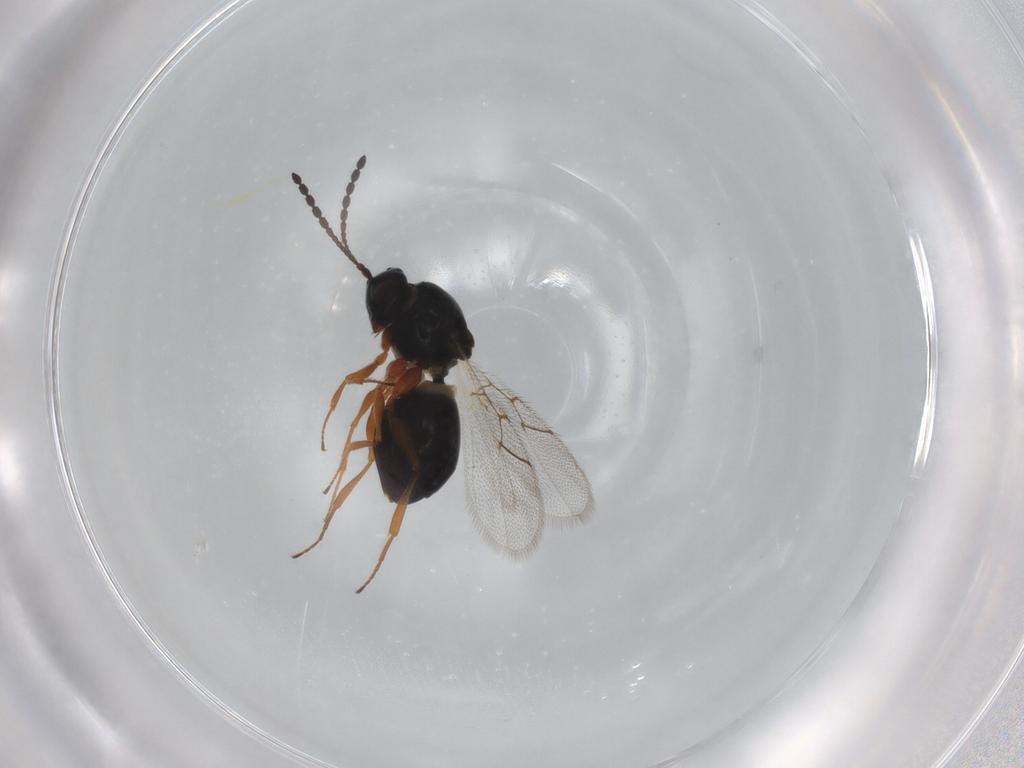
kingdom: Animalia
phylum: Arthropoda
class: Insecta
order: Hymenoptera
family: Figitidae
